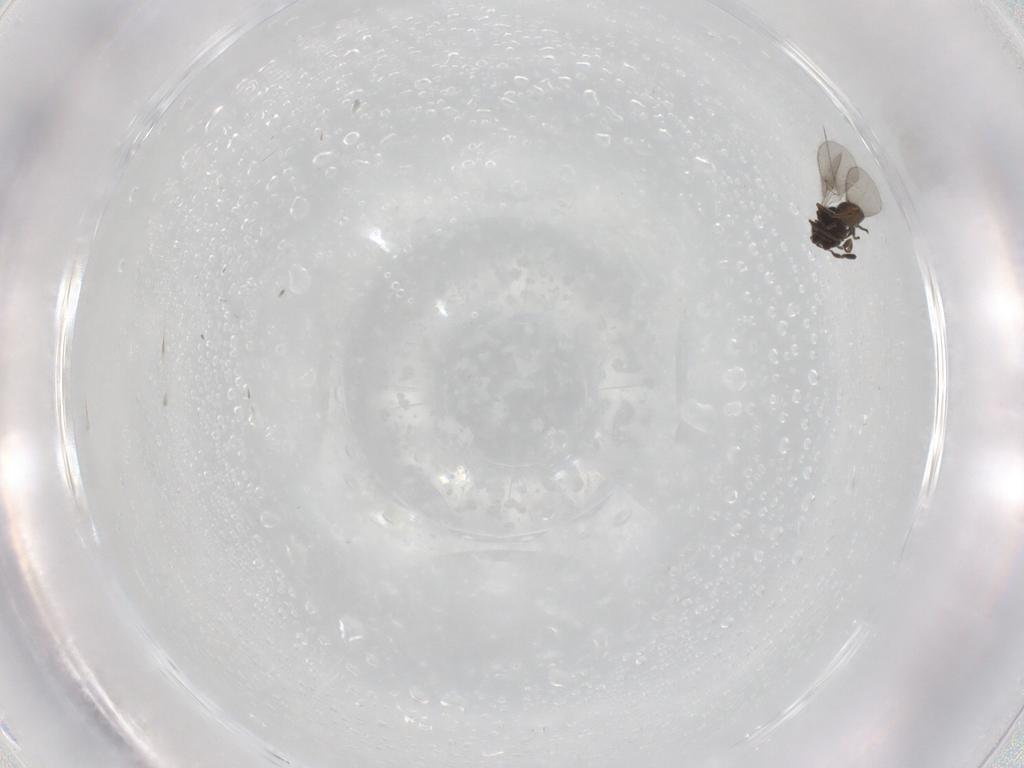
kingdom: Animalia
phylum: Arthropoda
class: Insecta
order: Hymenoptera
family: Platygastridae
